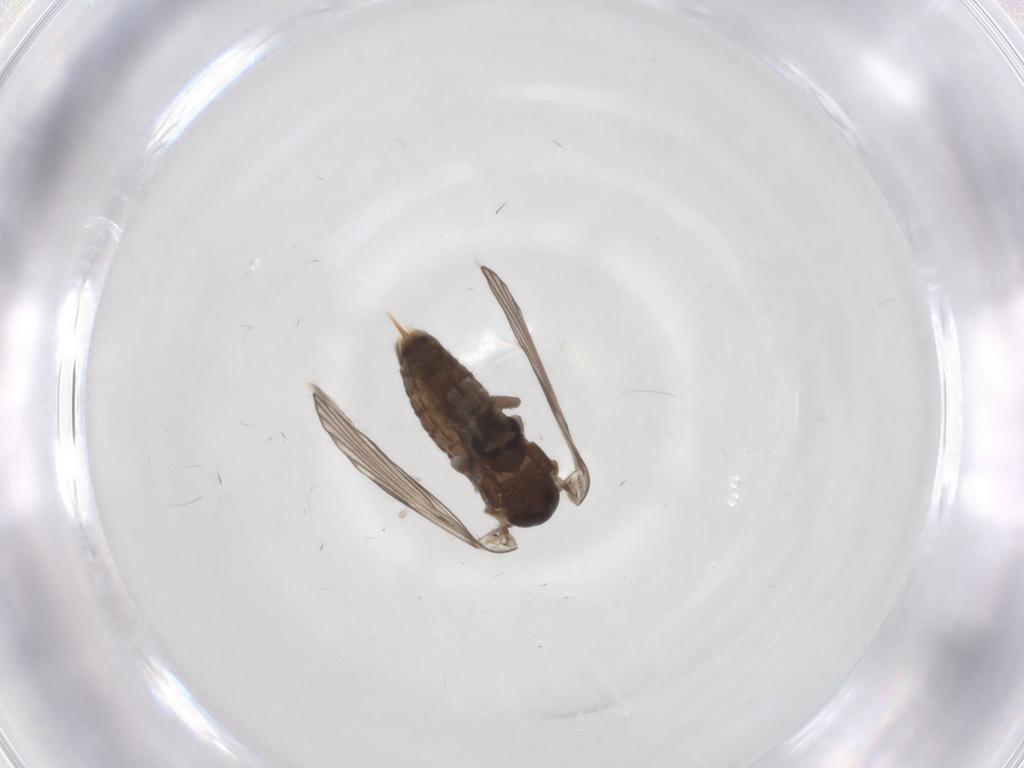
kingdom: Animalia
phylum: Arthropoda
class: Insecta
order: Diptera
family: Psychodidae
